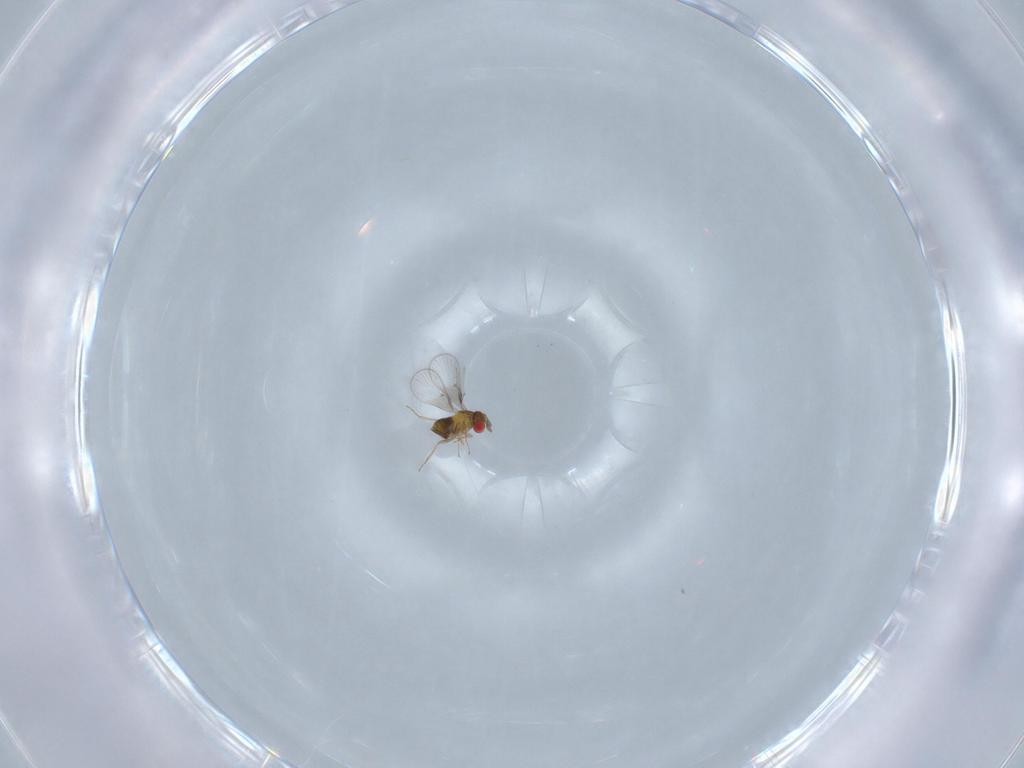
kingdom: Animalia
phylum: Arthropoda
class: Insecta
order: Hymenoptera
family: Trichogrammatidae
